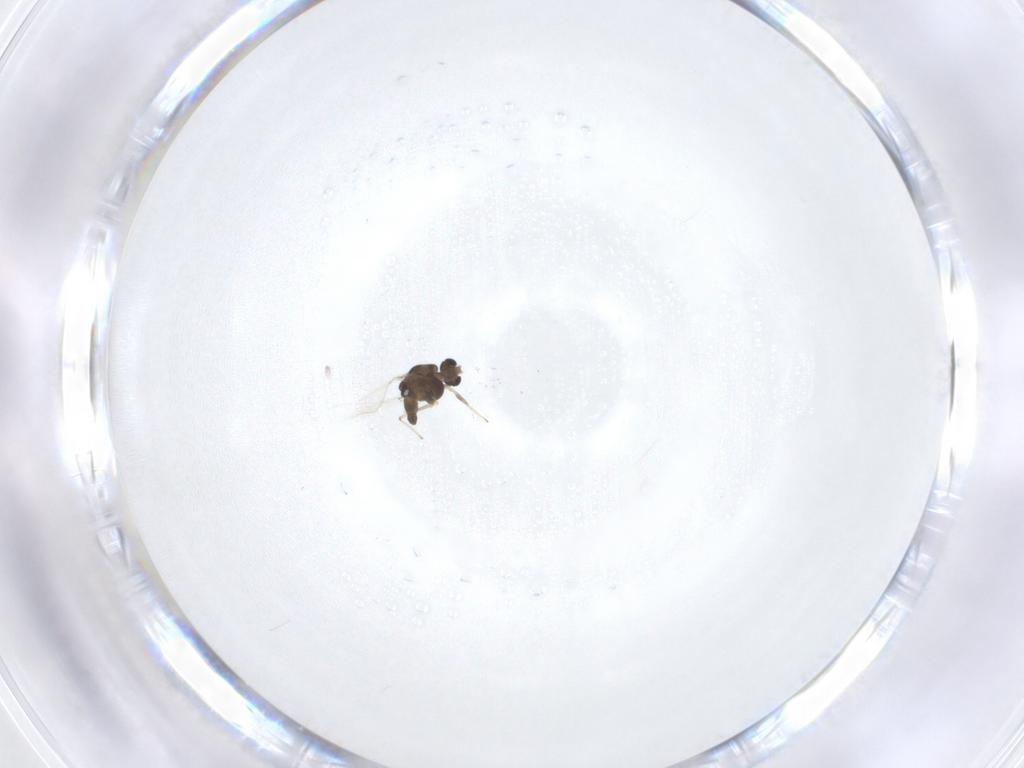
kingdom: Animalia
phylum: Arthropoda
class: Insecta
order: Diptera
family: Chironomidae
